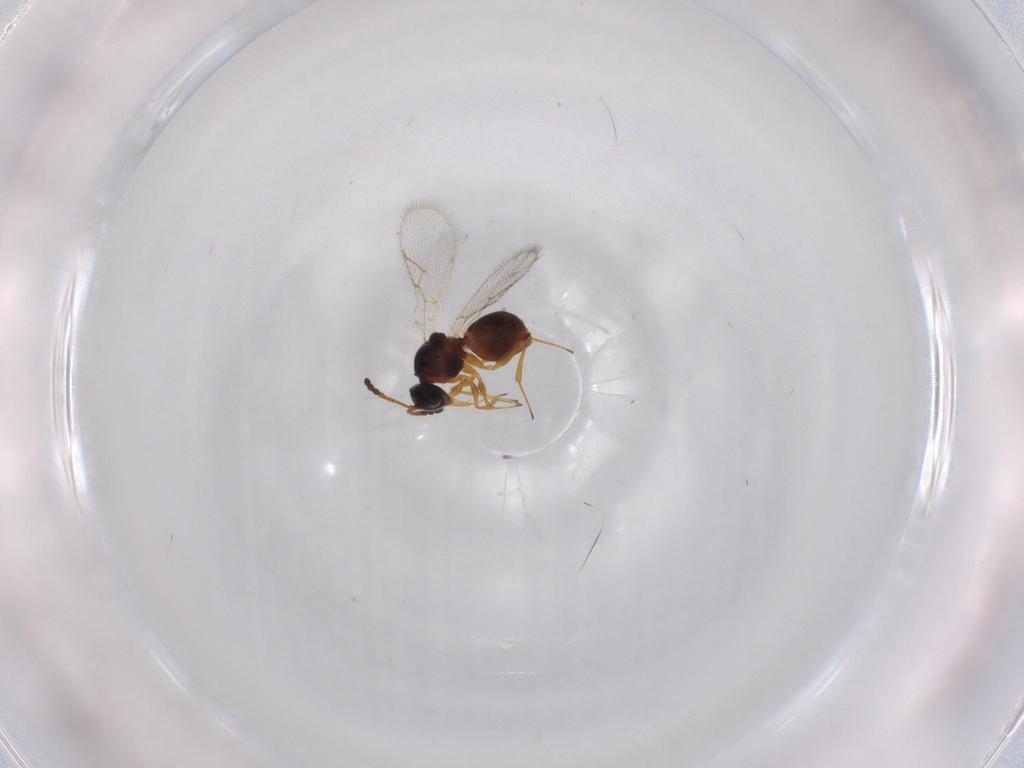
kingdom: Animalia
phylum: Arthropoda
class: Insecta
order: Hymenoptera
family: Figitidae
